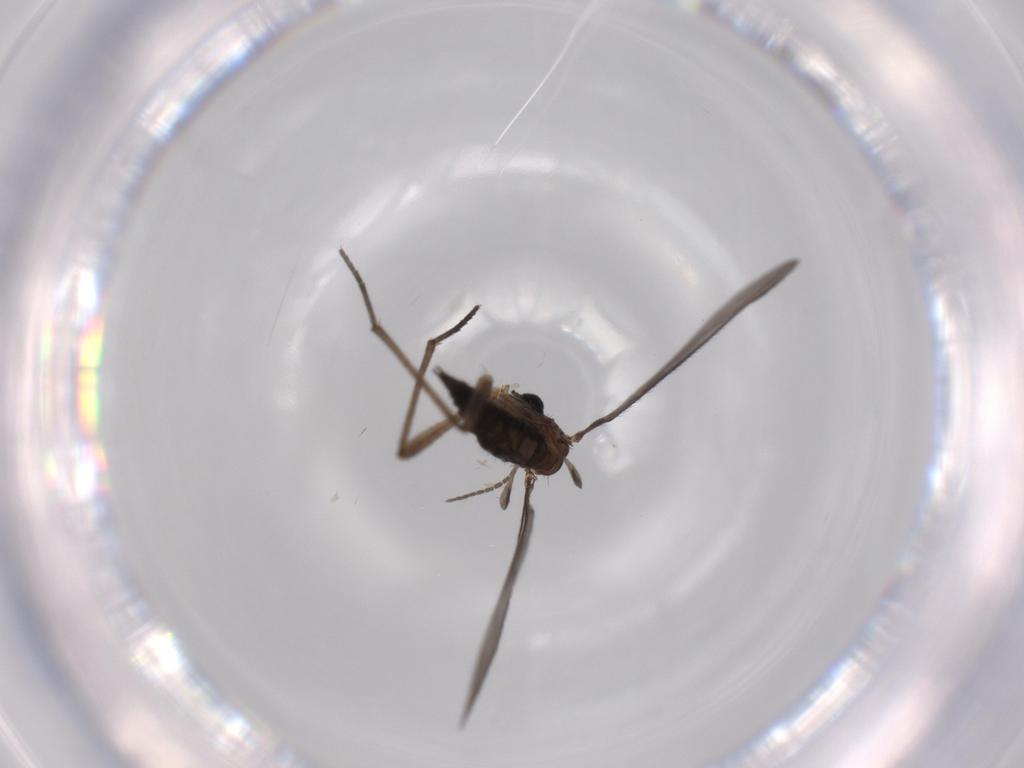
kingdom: Animalia
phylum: Arthropoda
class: Insecta
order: Diptera
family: Sciaridae
